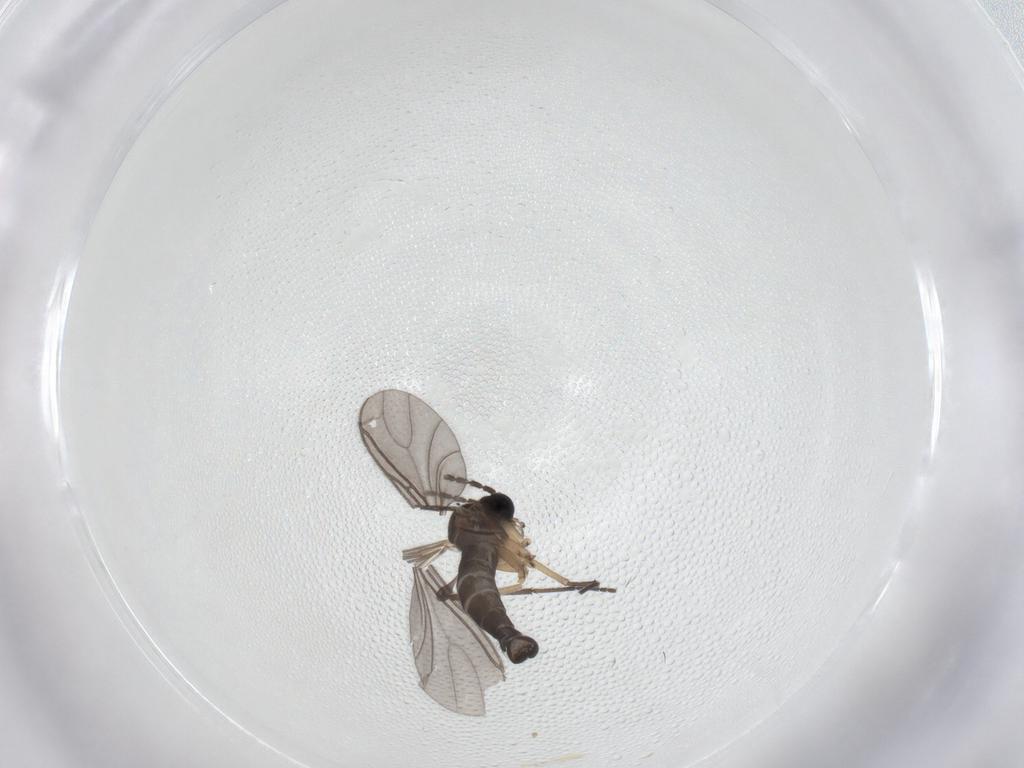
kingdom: Animalia
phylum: Arthropoda
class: Insecta
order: Diptera
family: Sciaridae
